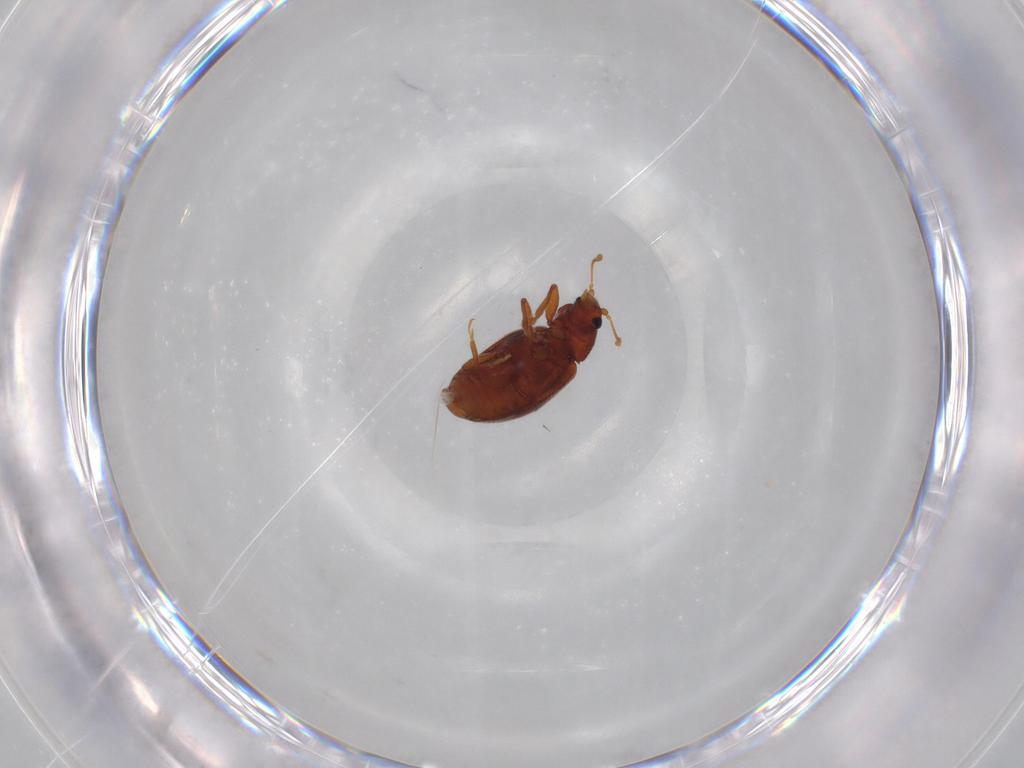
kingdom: Animalia
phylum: Arthropoda
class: Insecta
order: Coleoptera
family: Latridiidae
